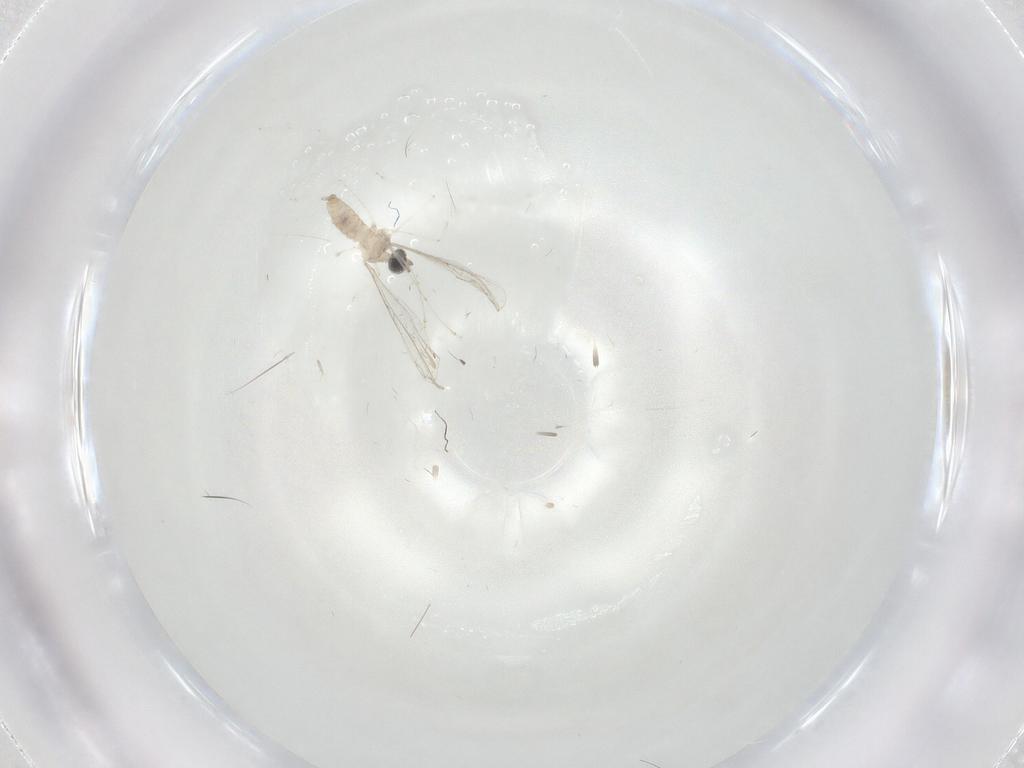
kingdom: Animalia
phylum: Arthropoda
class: Insecta
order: Diptera
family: Cecidomyiidae
